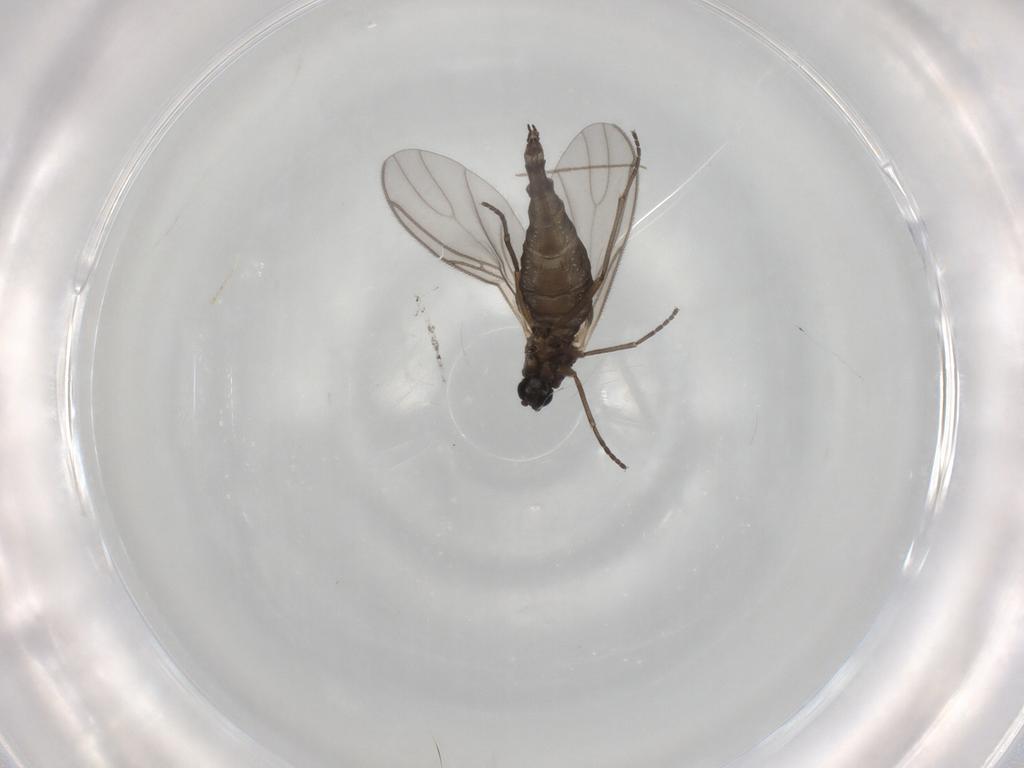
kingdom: Animalia
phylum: Arthropoda
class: Insecta
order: Diptera
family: Sciaridae
